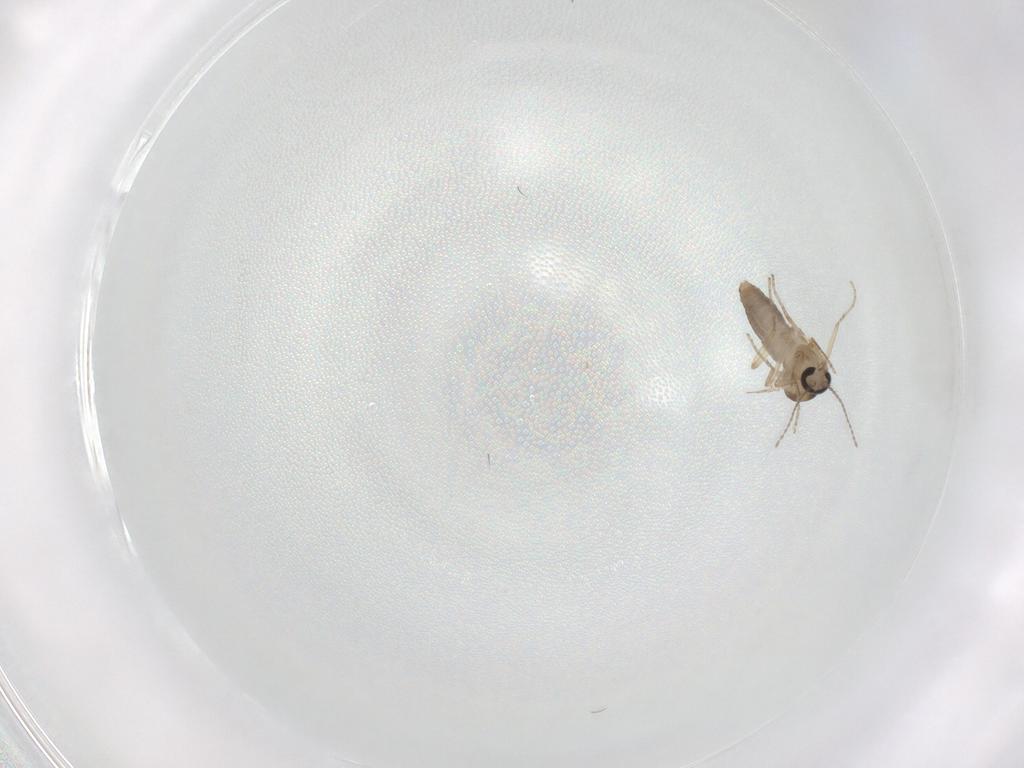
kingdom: Animalia
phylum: Arthropoda
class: Insecta
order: Diptera
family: Ceratopogonidae
